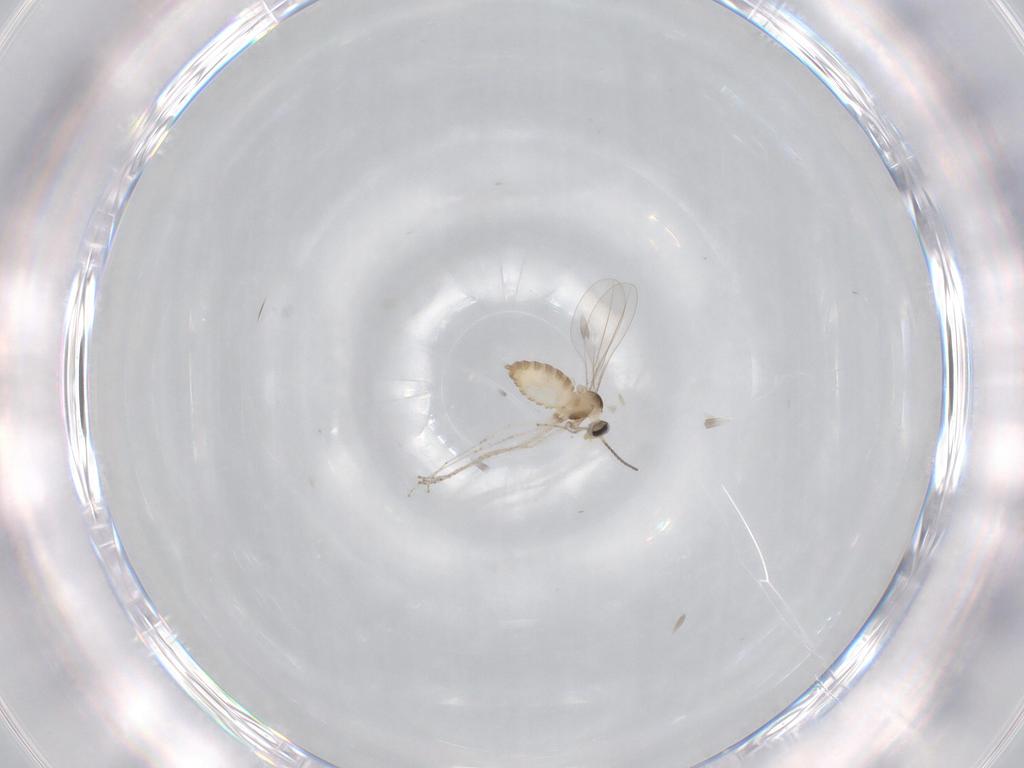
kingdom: Animalia
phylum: Arthropoda
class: Insecta
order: Diptera
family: Cecidomyiidae
